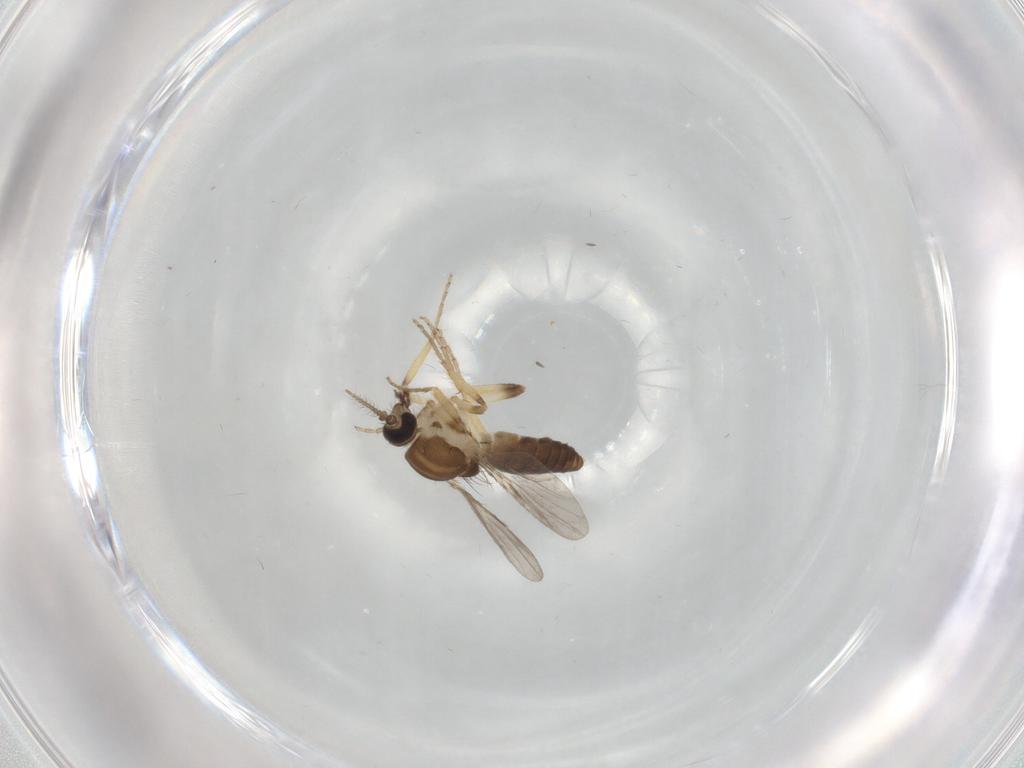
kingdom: Animalia
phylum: Arthropoda
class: Insecta
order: Diptera
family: Ceratopogonidae
